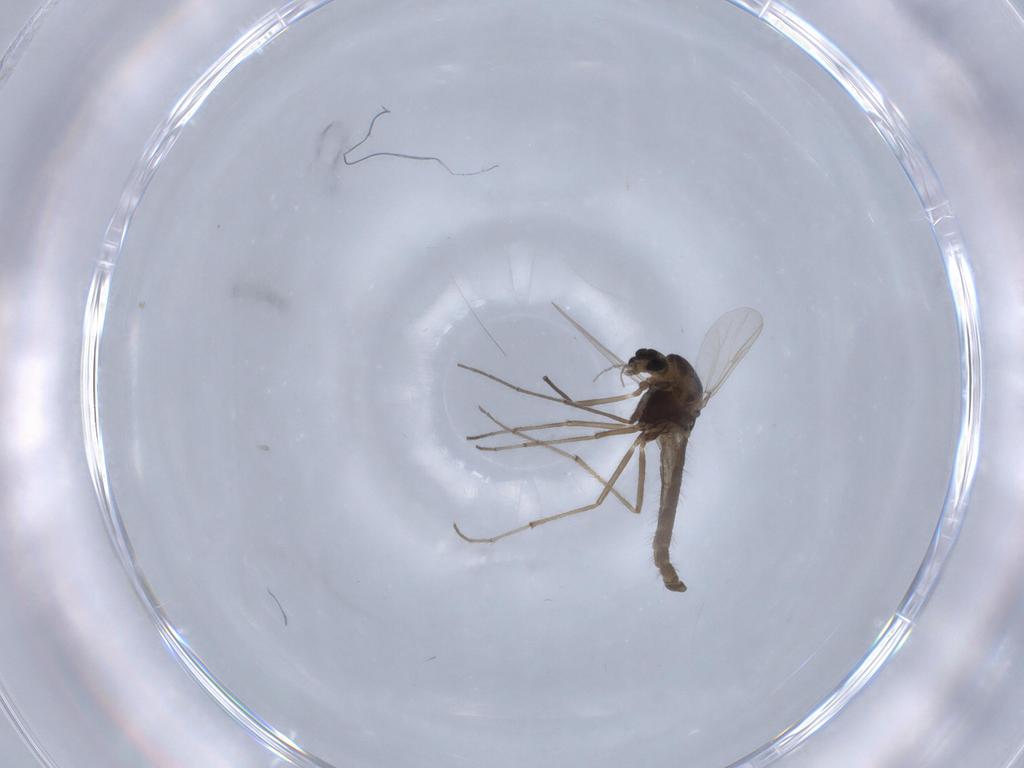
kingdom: Animalia
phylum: Arthropoda
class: Insecta
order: Diptera
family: Chironomidae
